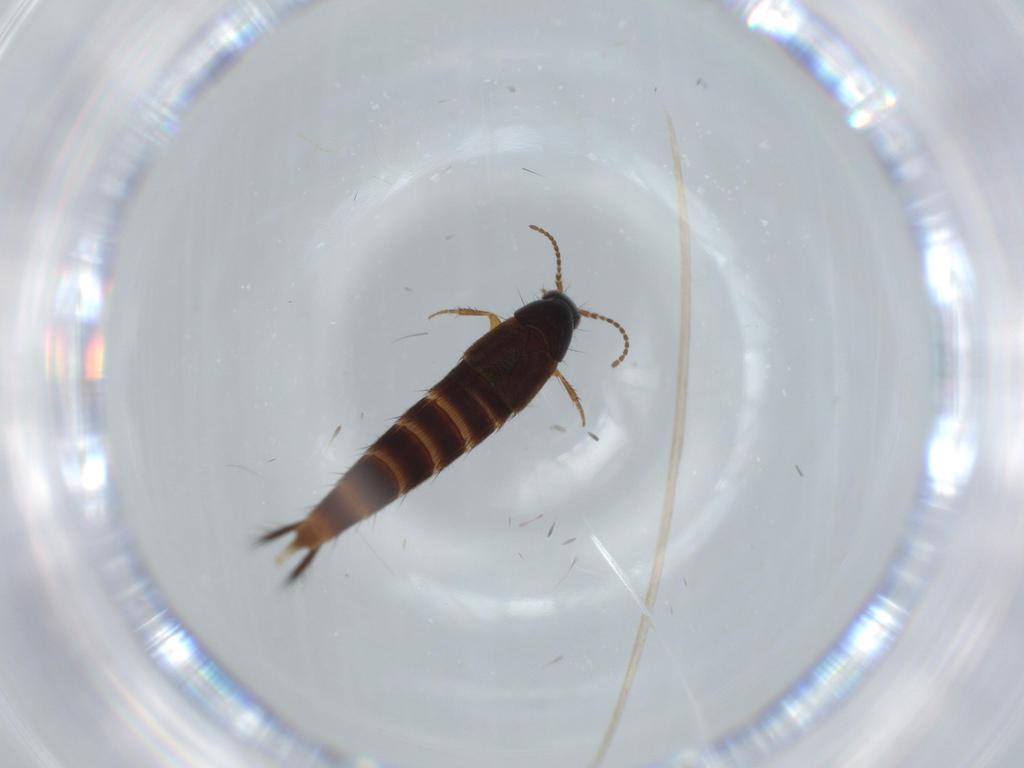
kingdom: Animalia
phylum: Arthropoda
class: Insecta
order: Coleoptera
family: Chrysomelidae
